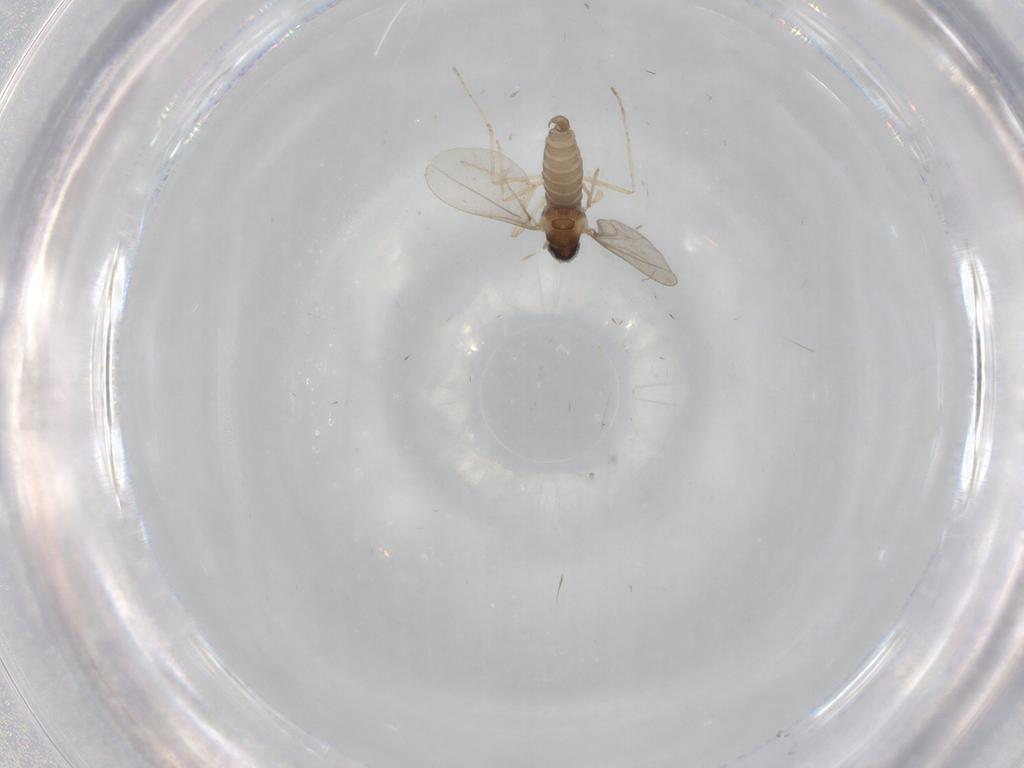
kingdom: Animalia
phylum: Arthropoda
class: Insecta
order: Diptera
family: Cecidomyiidae
